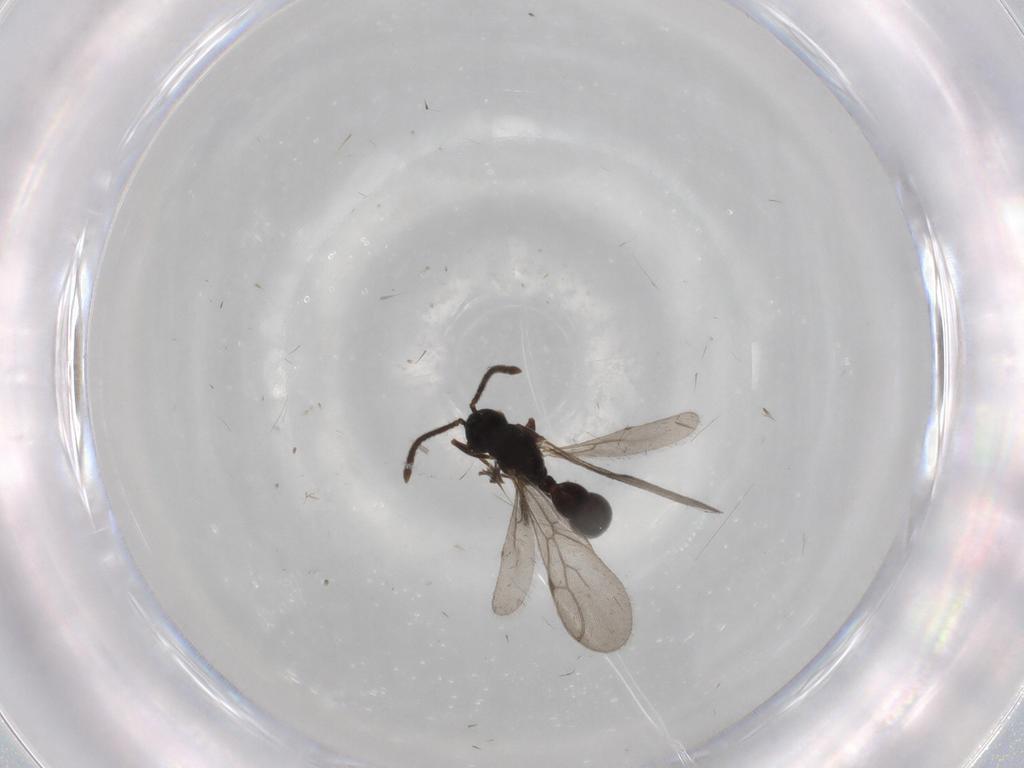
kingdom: Animalia
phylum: Arthropoda
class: Insecta
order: Hymenoptera
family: Formicidae
